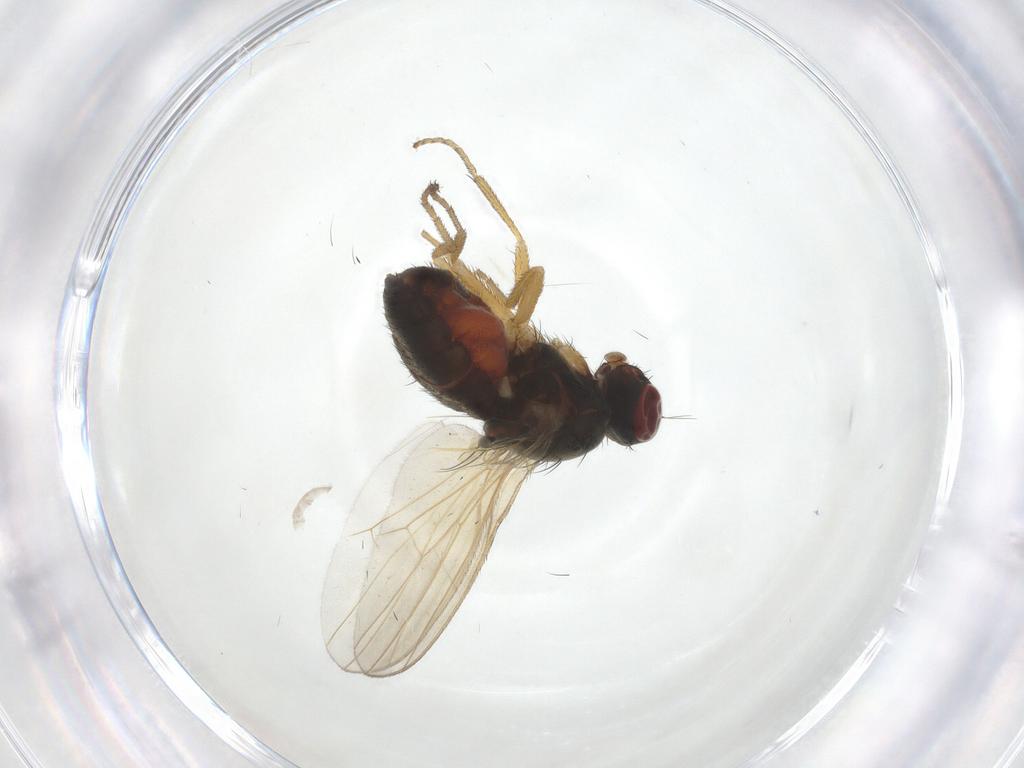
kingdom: Animalia
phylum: Arthropoda
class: Insecta
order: Diptera
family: Heleomyzidae
